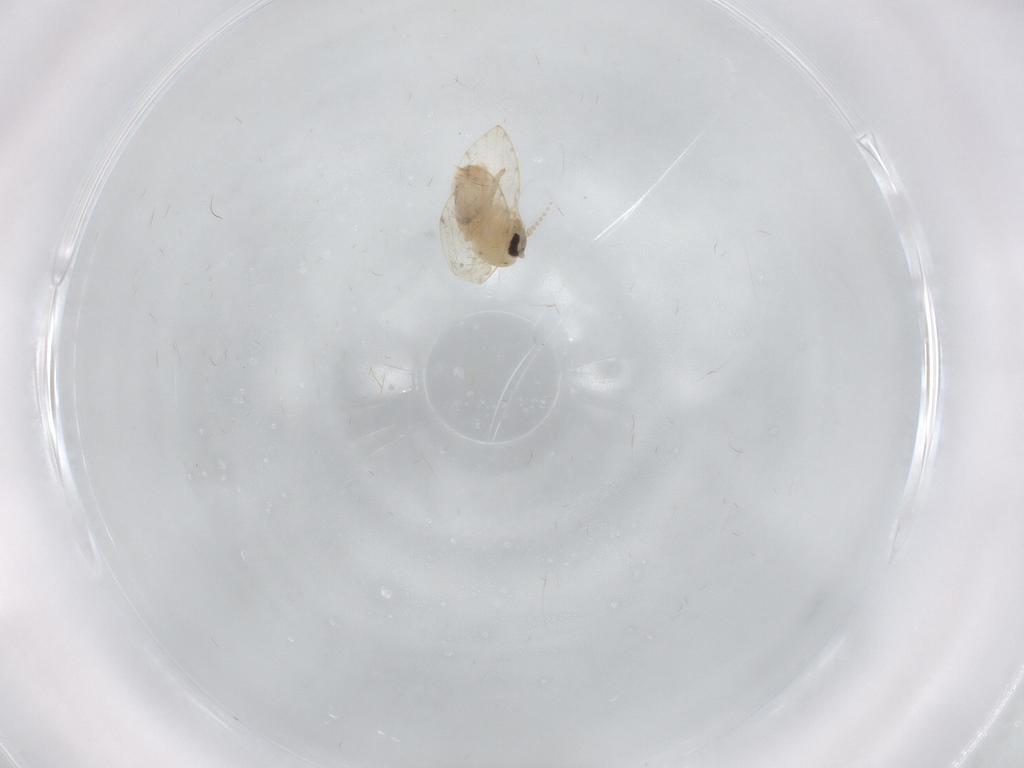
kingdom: Animalia
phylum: Arthropoda
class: Insecta
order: Diptera
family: Psychodidae
